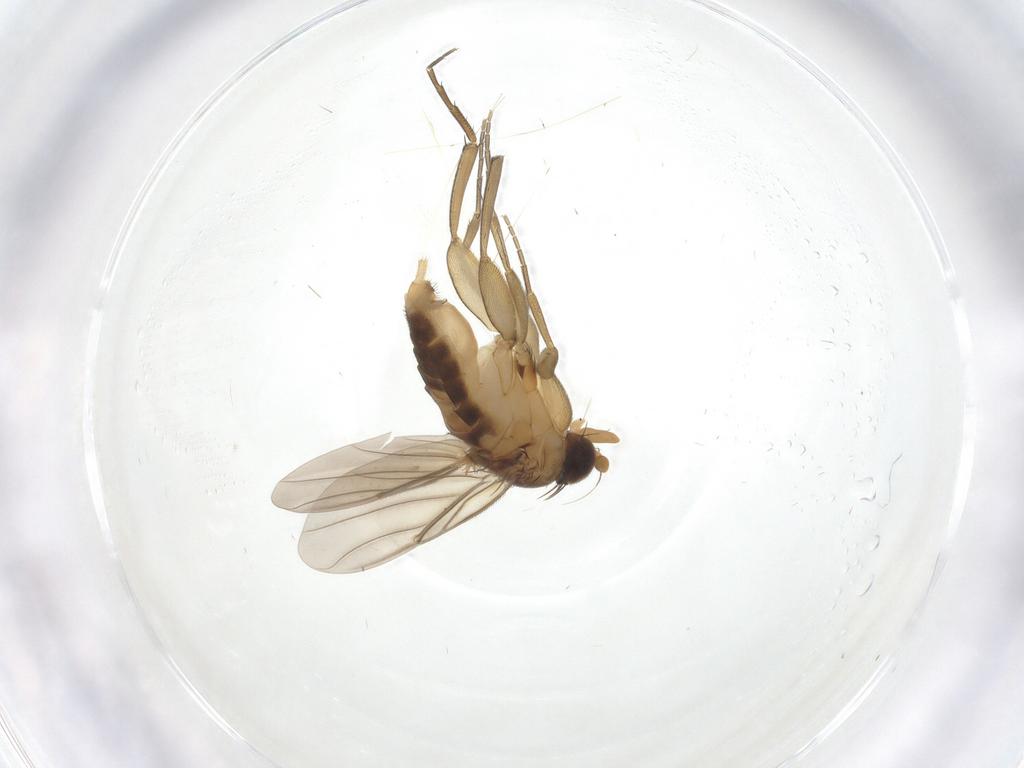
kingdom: Animalia
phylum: Arthropoda
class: Insecta
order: Diptera
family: Phoridae
